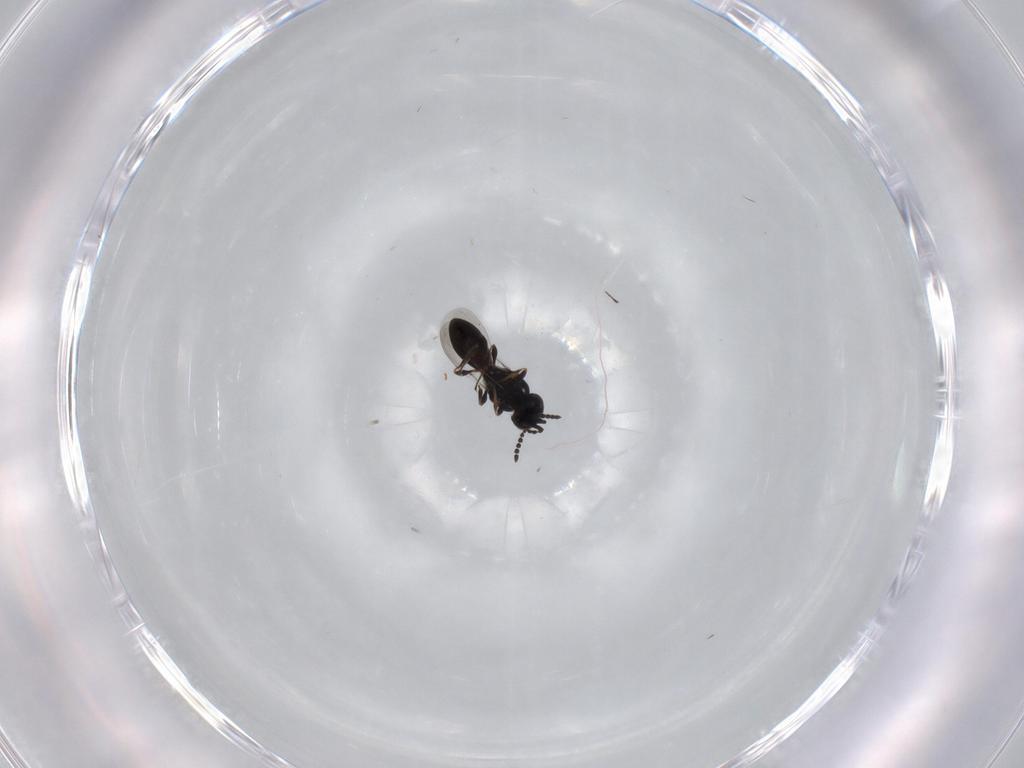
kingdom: Animalia
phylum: Arthropoda
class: Insecta
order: Hymenoptera
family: Platygastridae
